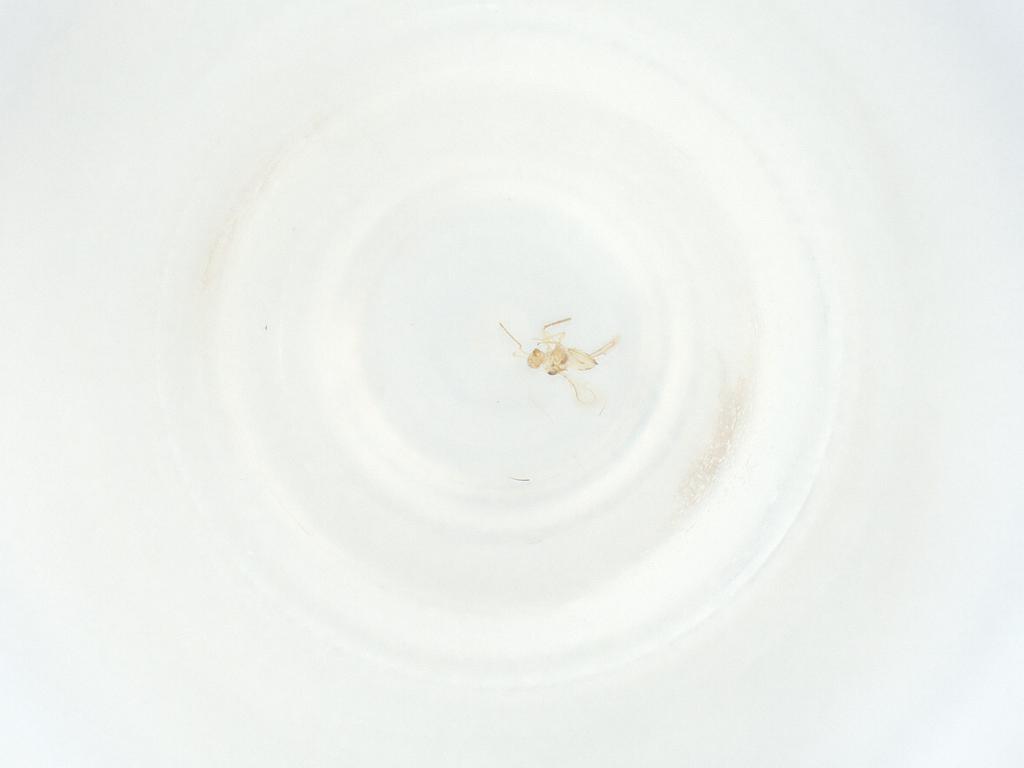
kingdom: Animalia
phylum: Arthropoda
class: Insecta
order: Diptera
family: Chironomidae
